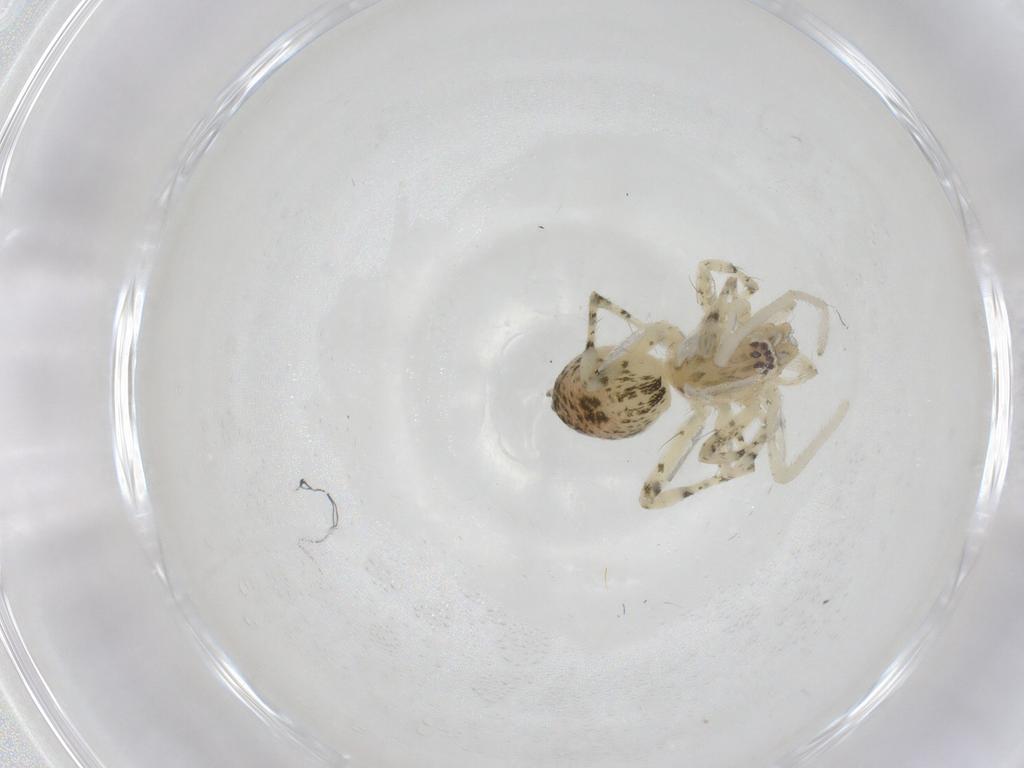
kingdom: Animalia
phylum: Arthropoda
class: Arachnida
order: Araneae
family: Anyphaenidae
